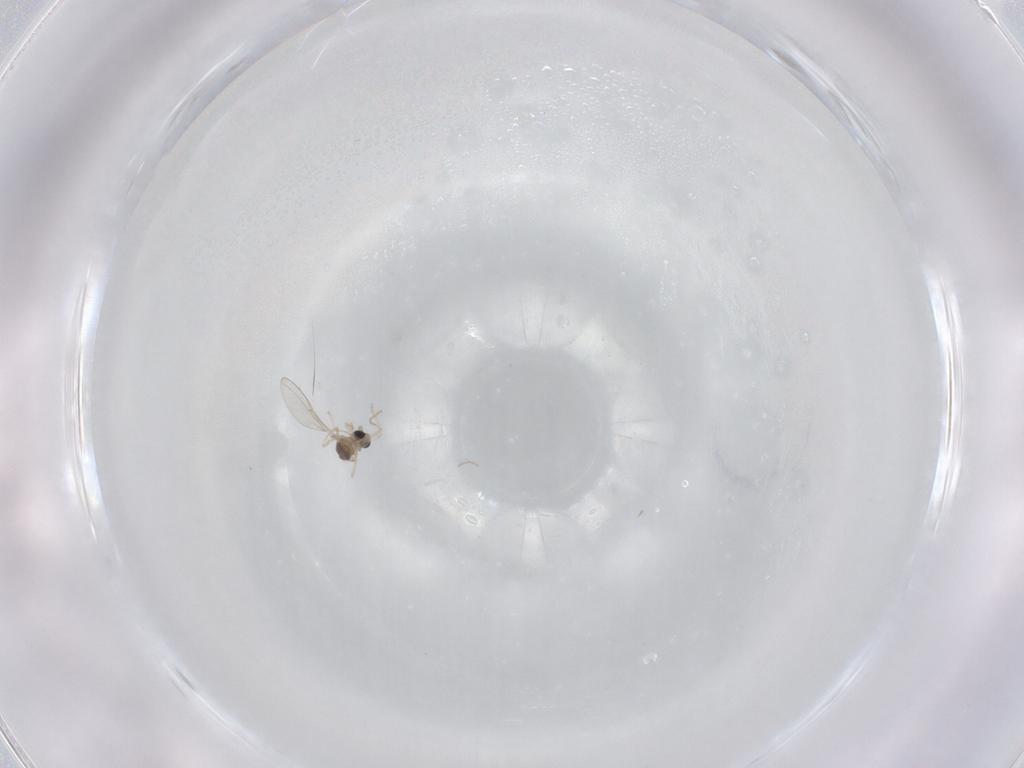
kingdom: Animalia
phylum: Arthropoda
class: Insecta
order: Diptera
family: Cecidomyiidae
